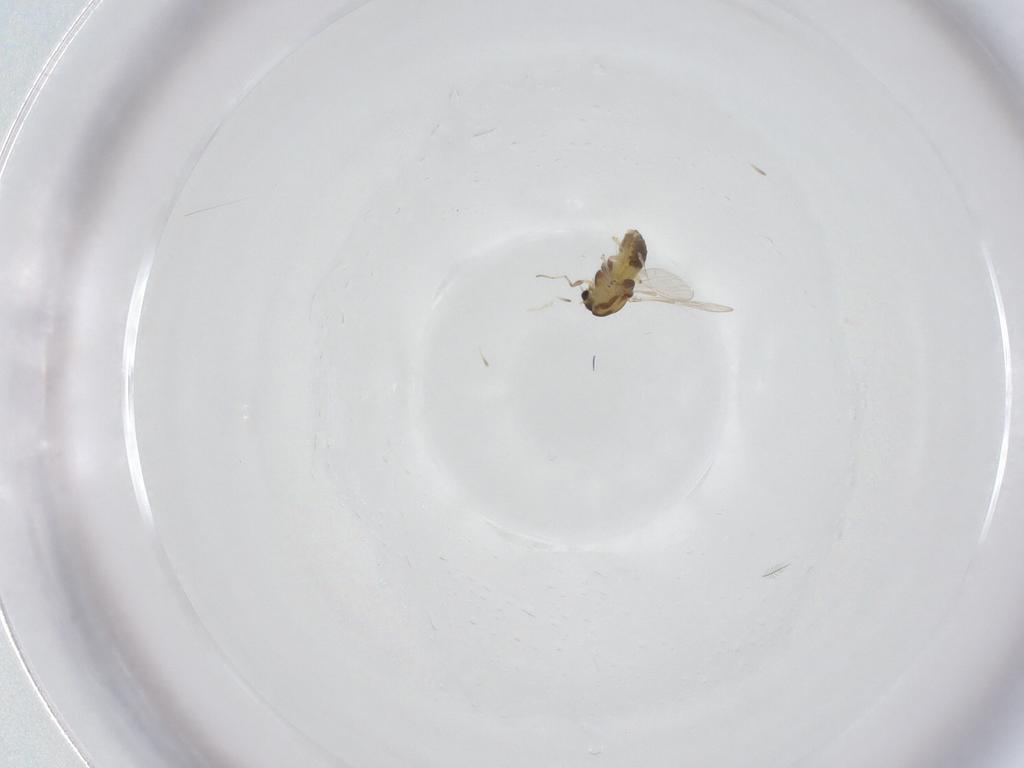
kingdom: Animalia
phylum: Arthropoda
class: Insecta
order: Diptera
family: Chironomidae
